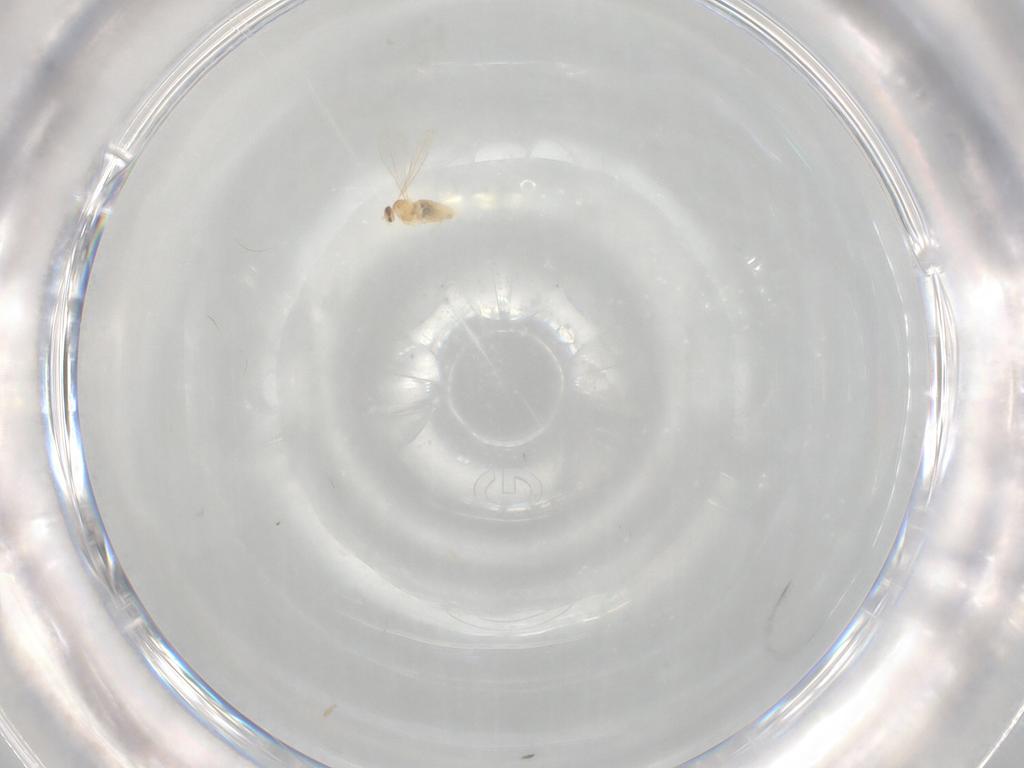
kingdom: Animalia
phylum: Arthropoda
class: Insecta
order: Diptera
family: Cecidomyiidae
